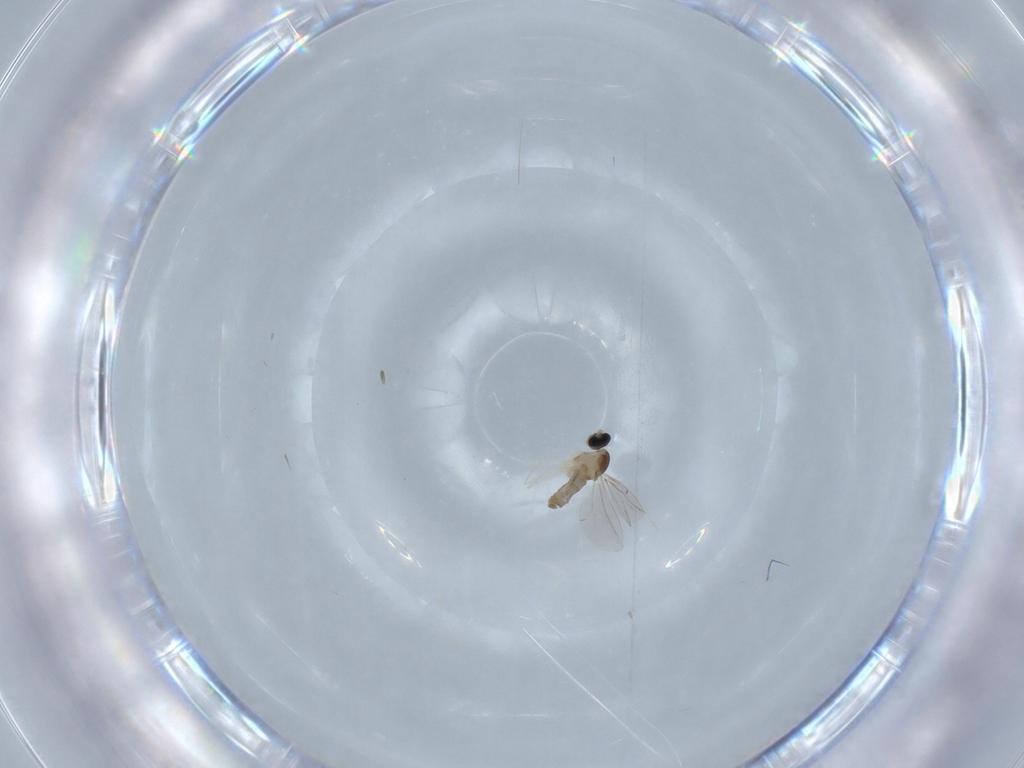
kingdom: Animalia
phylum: Arthropoda
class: Insecta
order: Diptera
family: Cecidomyiidae
